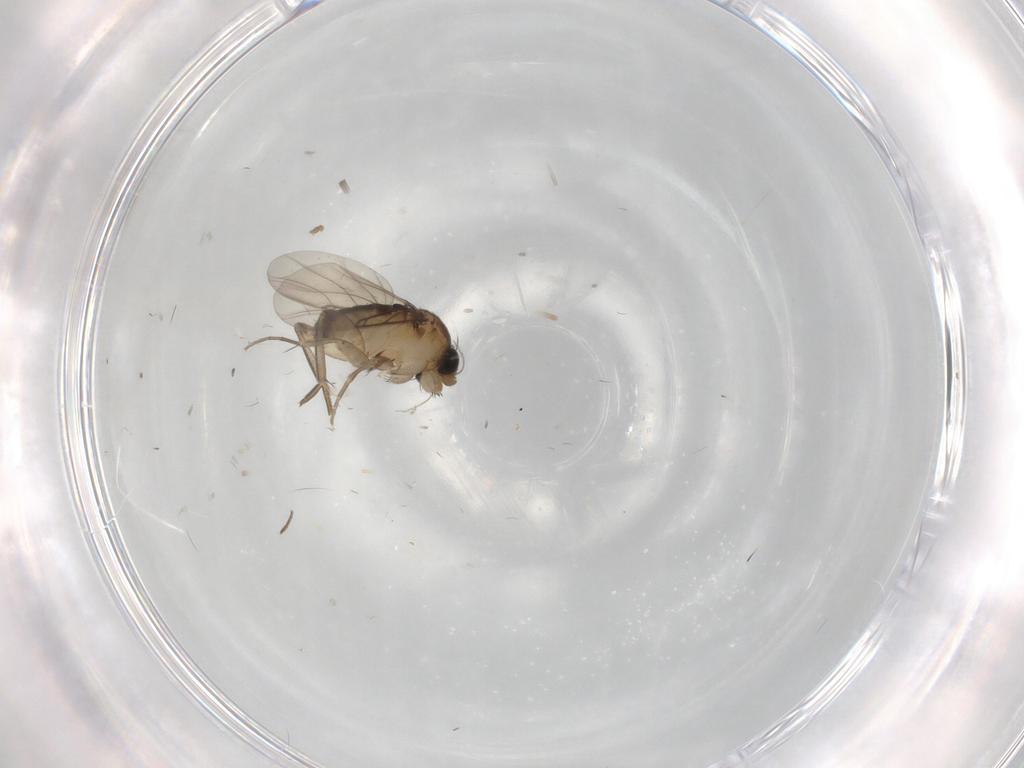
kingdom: Animalia
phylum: Arthropoda
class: Insecta
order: Diptera
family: Phoridae
